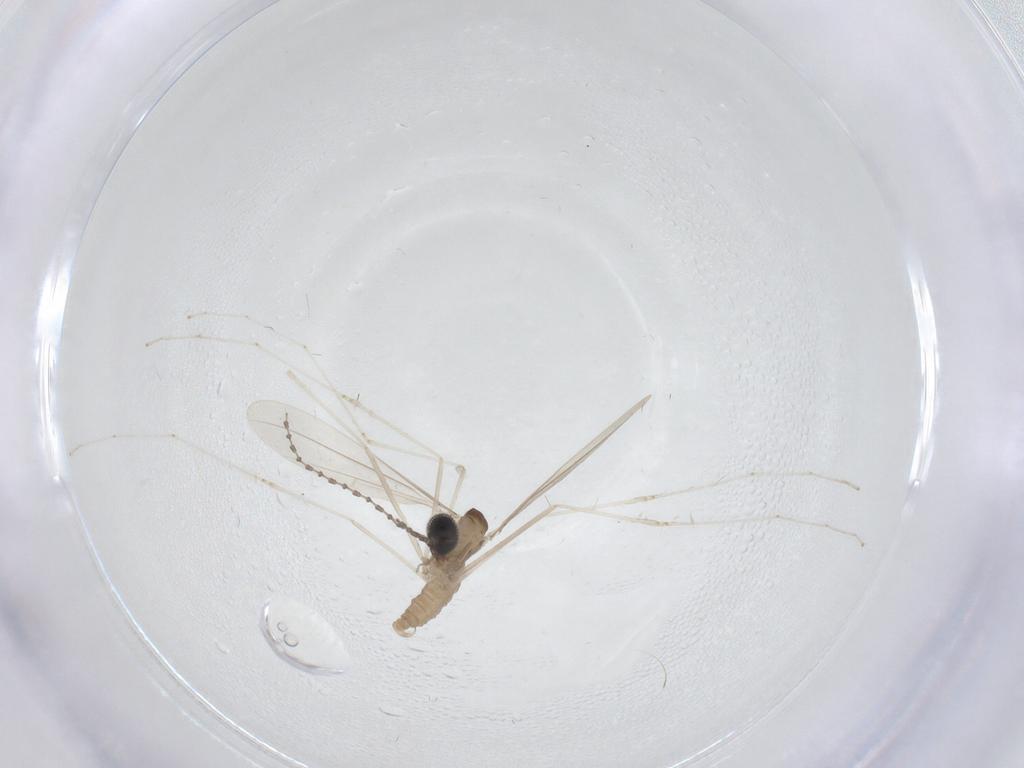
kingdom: Animalia
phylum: Arthropoda
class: Insecta
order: Diptera
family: Cecidomyiidae
